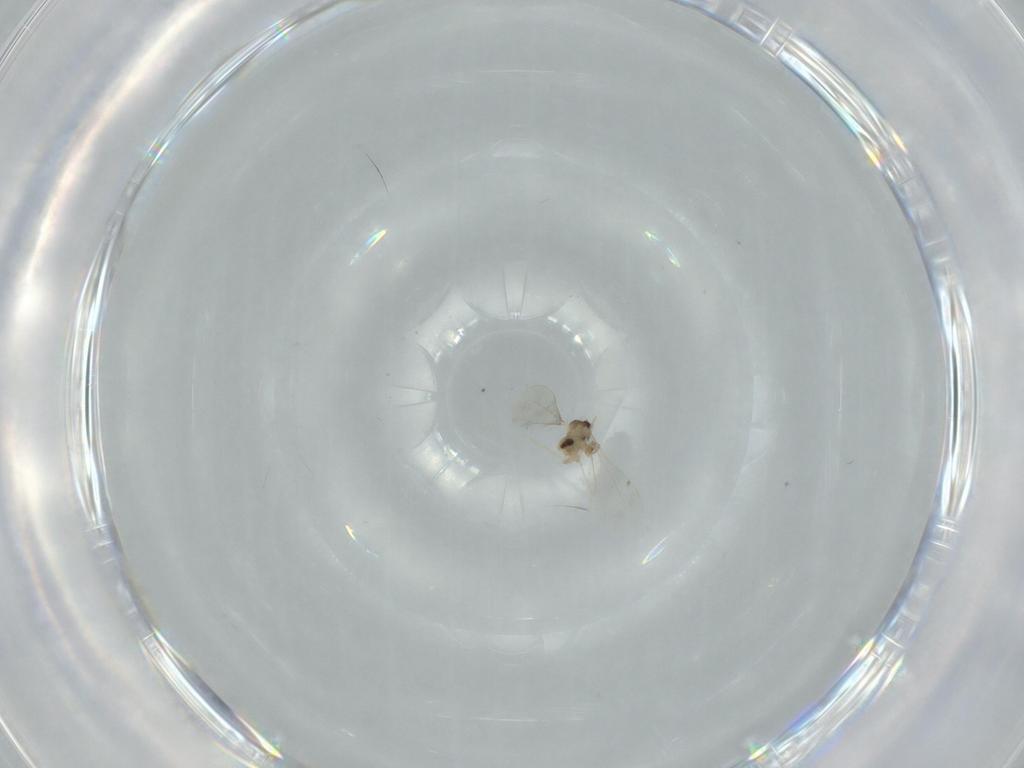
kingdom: Animalia
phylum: Arthropoda
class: Insecta
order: Diptera
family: Cecidomyiidae
